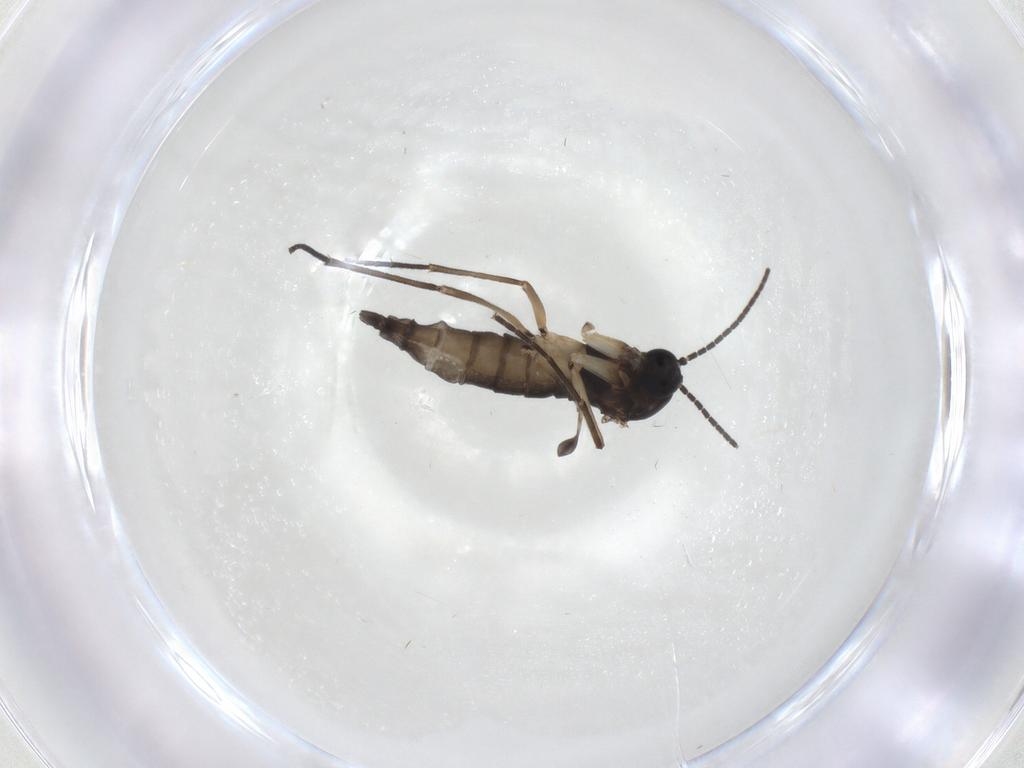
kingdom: Animalia
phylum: Arthropoda
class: Insecta
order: Diptera
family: Sciaridae
